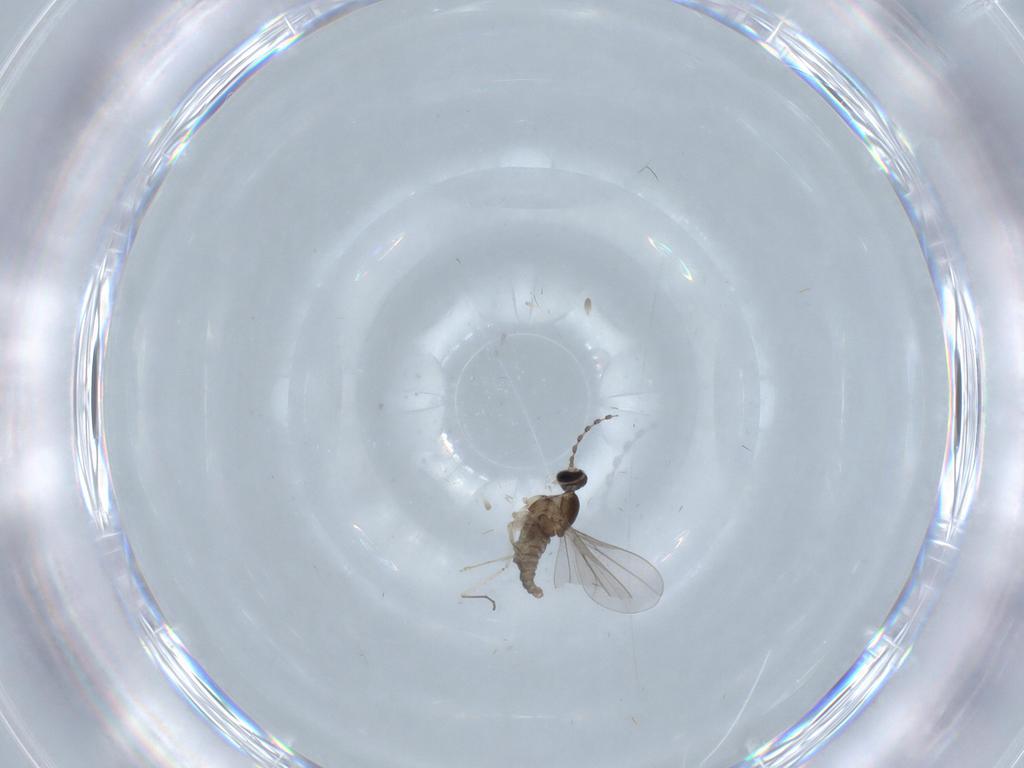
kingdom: Animalia
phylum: Arthropoda
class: Insecta
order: Diptera
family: Cecidomyiidae
